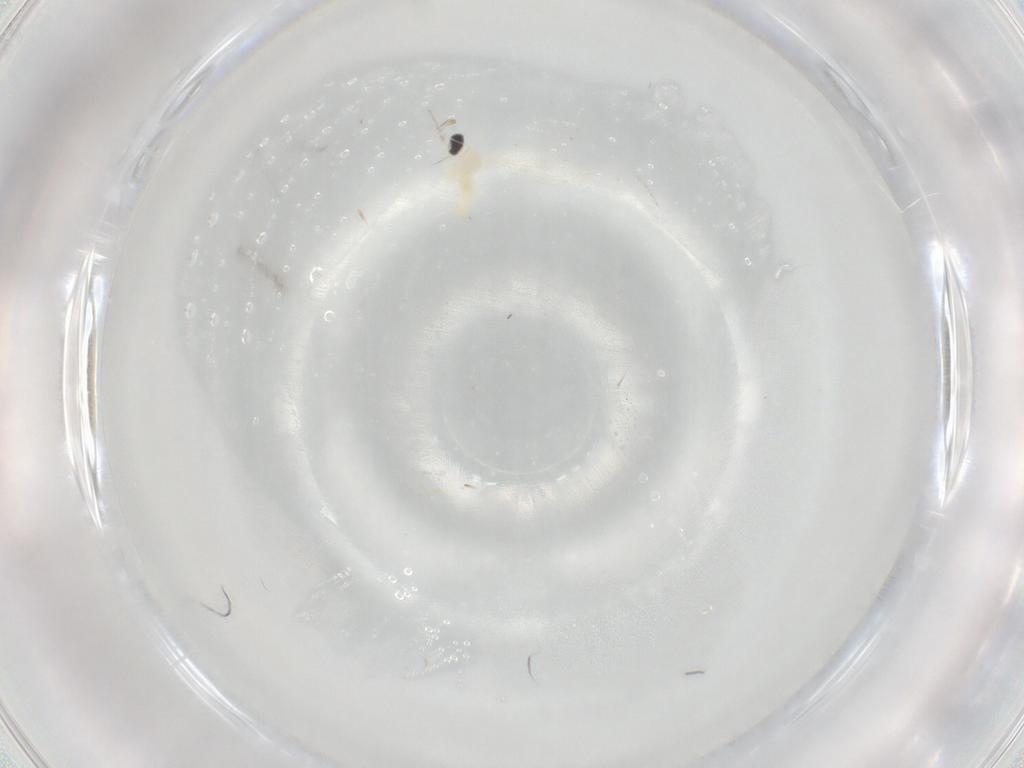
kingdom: Animalia
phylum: Arthropoda
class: Insecta
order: Diptera
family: Cecidomyiidae
